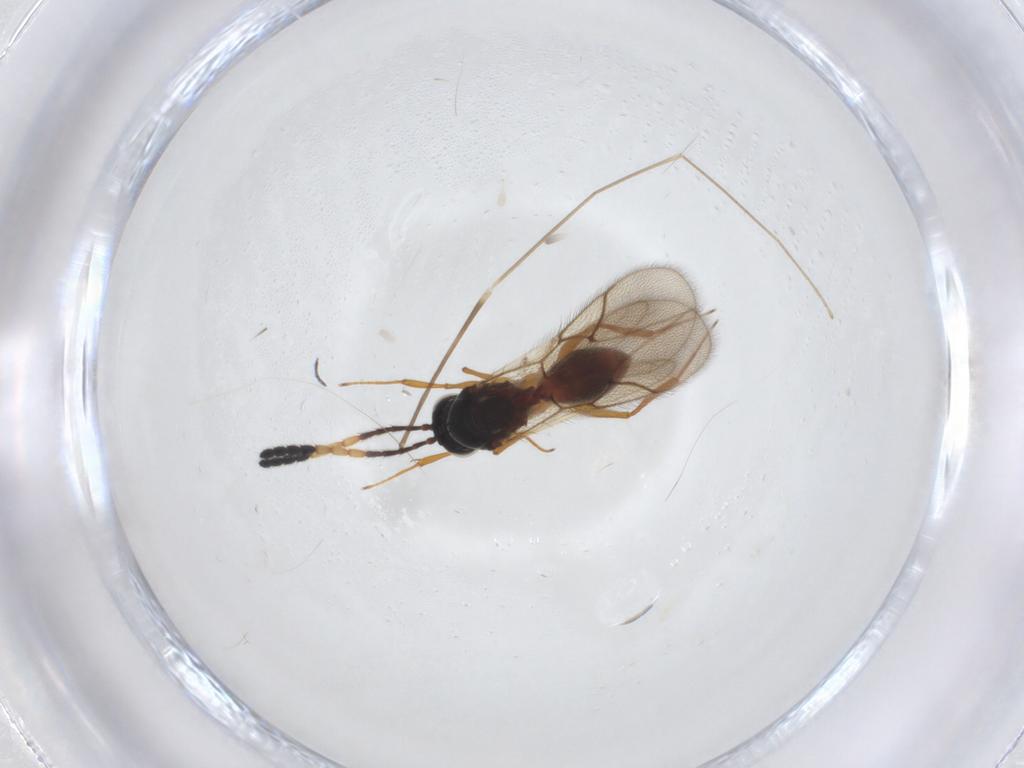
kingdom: Animalia
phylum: Arthropoda
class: Insecta
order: Hymenoptera
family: Figitidae
